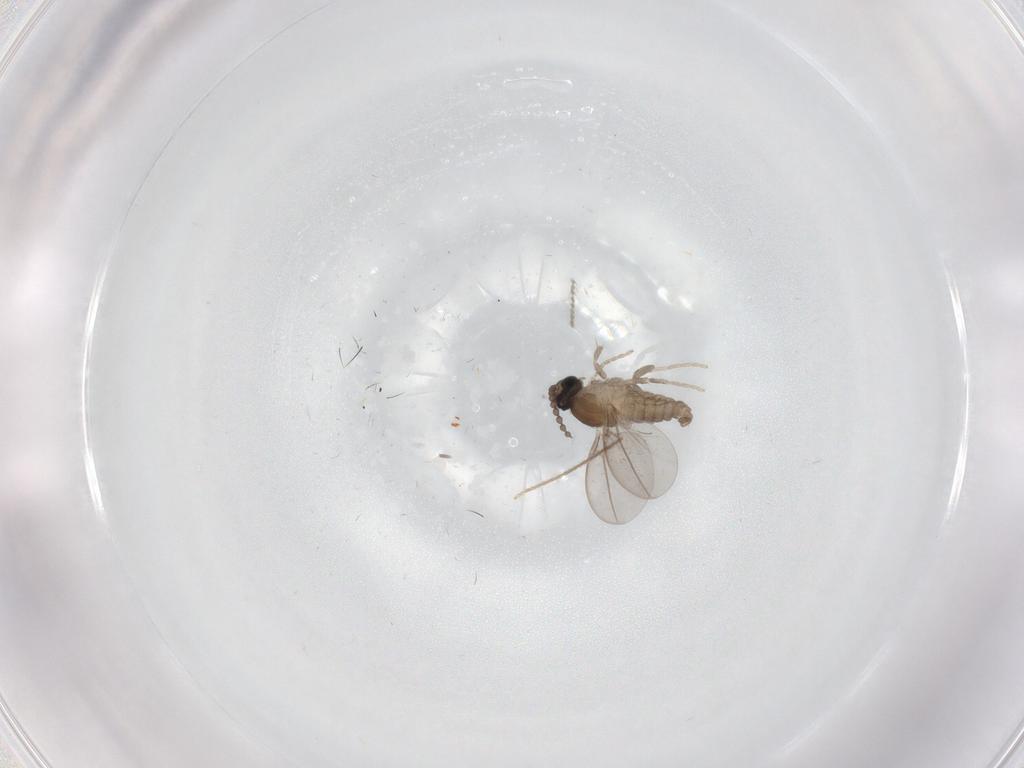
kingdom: Animalia
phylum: Arthropoda
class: Insecta
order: Diptera
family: Cecidomyiidae
